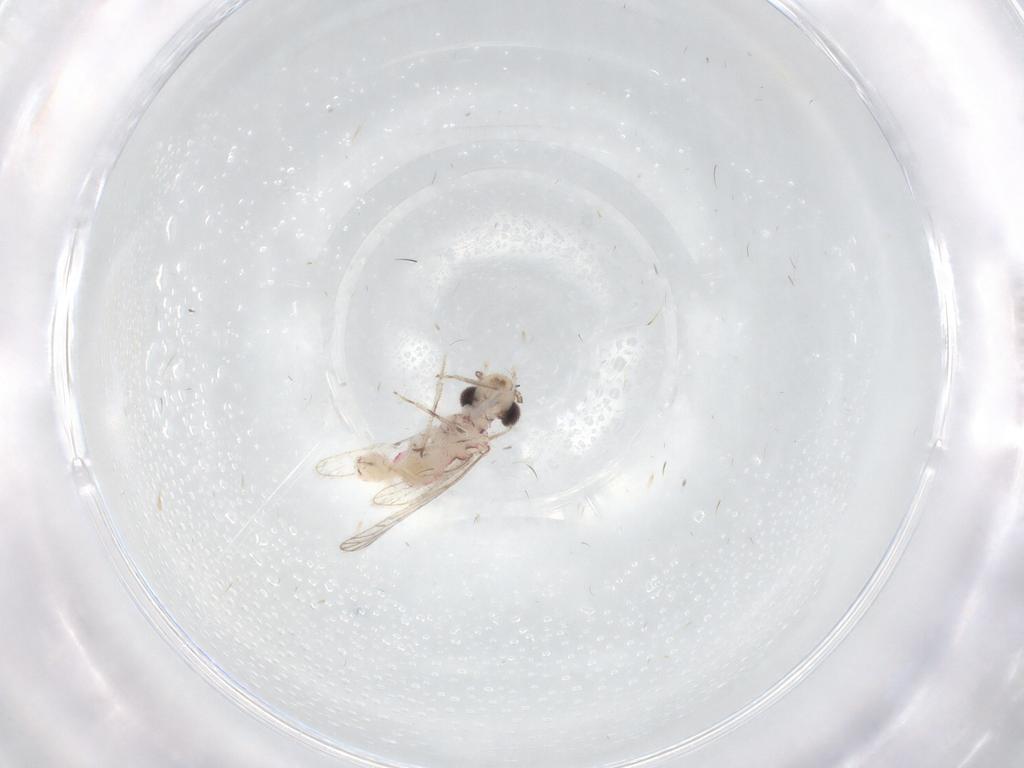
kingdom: Animalia
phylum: Arthropoda
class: Insecta
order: Psocodea
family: Caeciliusidae
